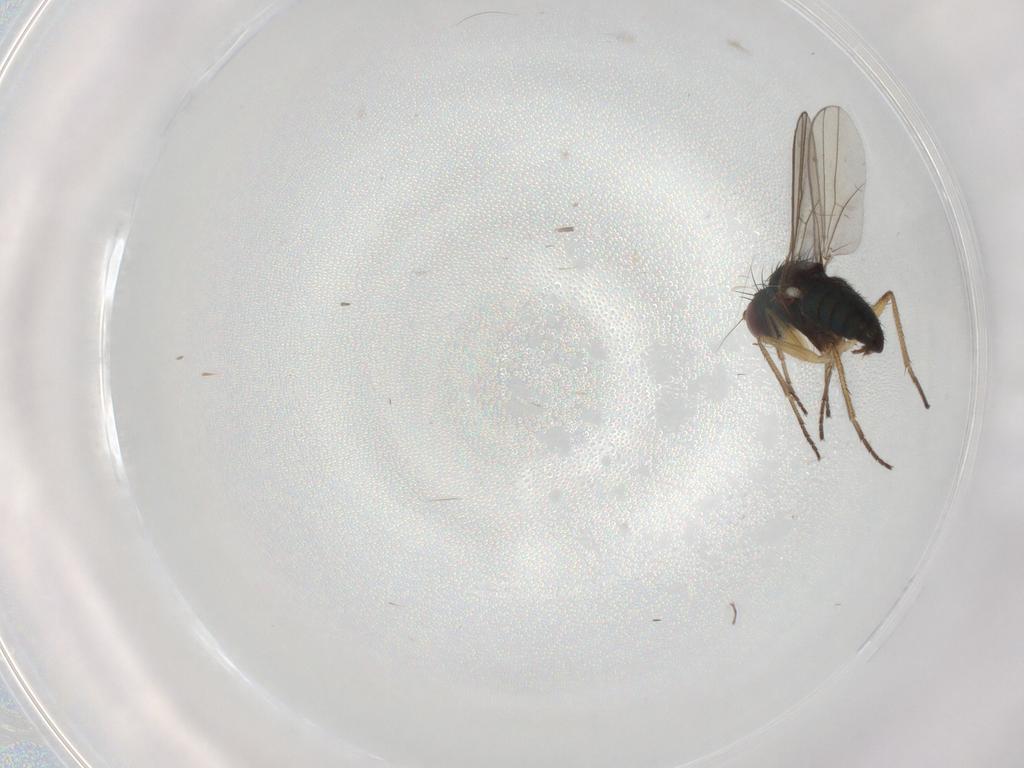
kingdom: Animalia
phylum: Arthropoda
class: Insecta
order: Diptera
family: Dolichopodidae
